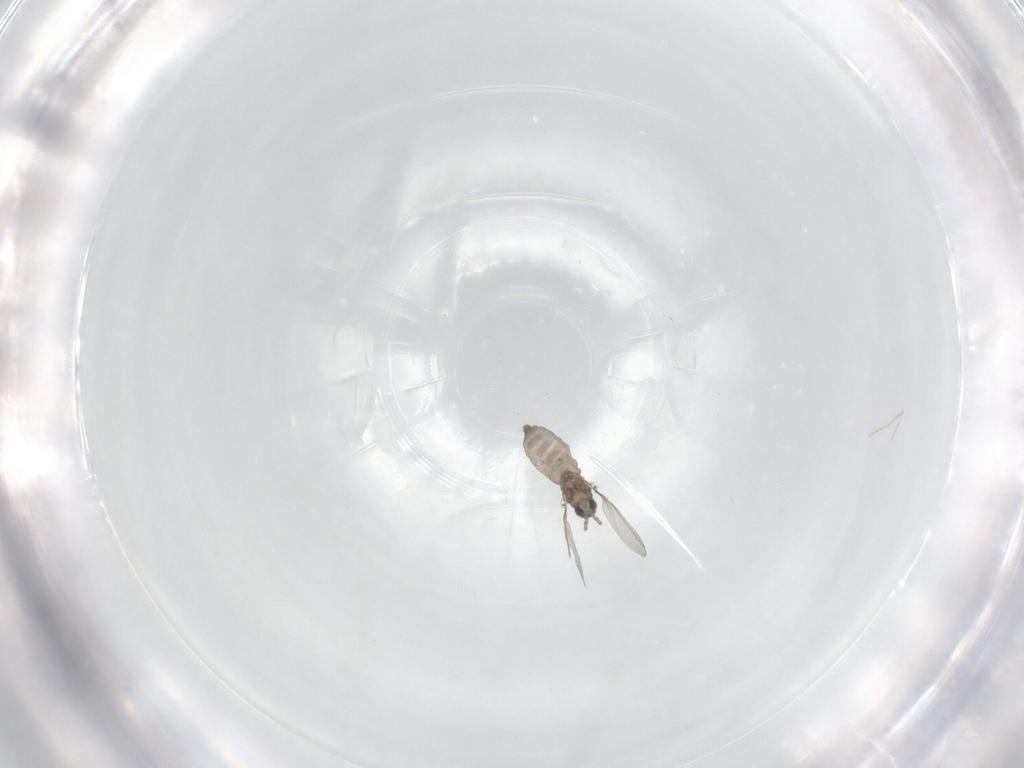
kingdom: Animalia
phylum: Arthropoda
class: Insecta
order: Diptera
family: Cecidomyiidae
